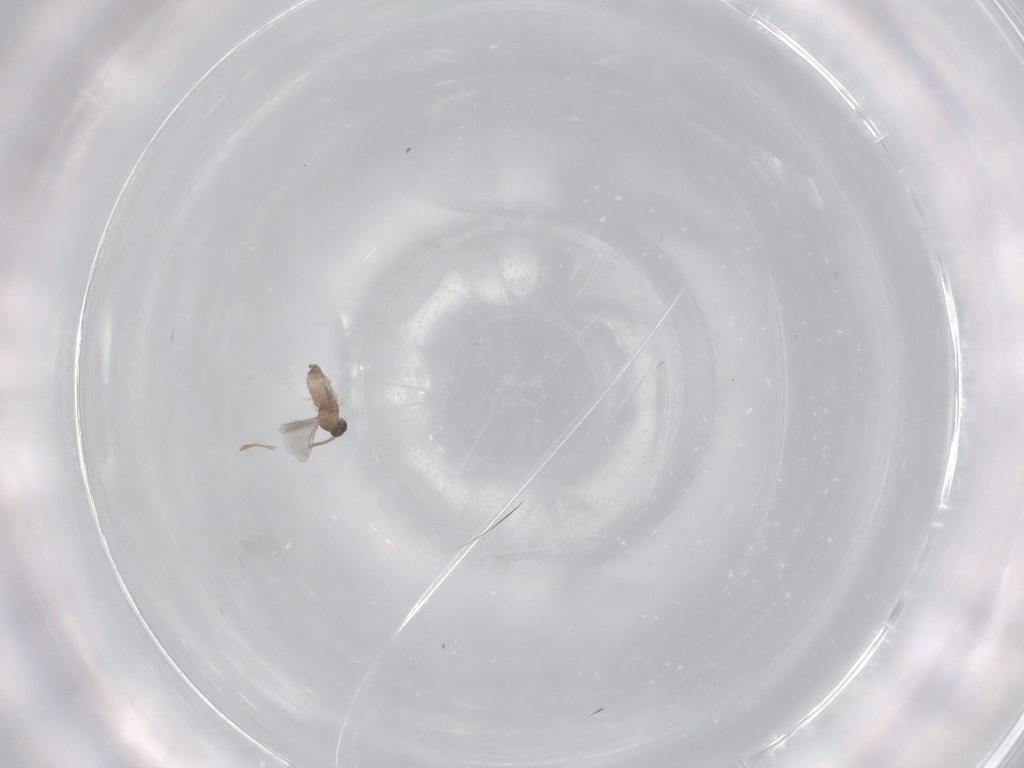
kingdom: Animalia
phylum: Arthropoda
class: Insecta
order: Diptera
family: Cecidomyiidae
